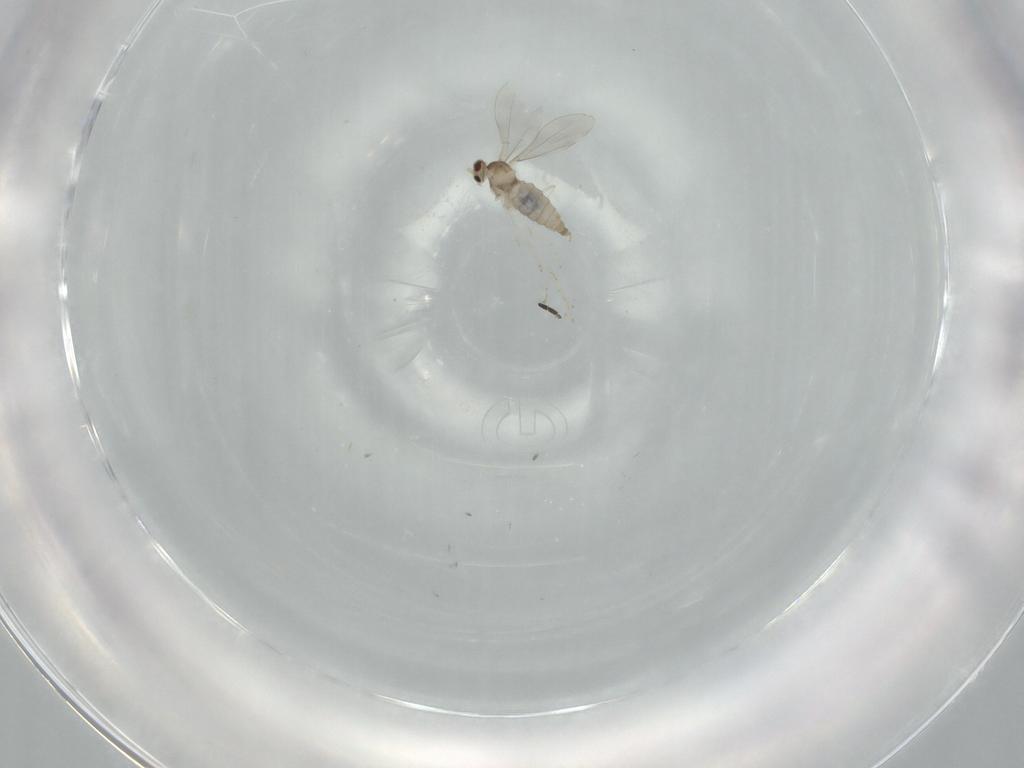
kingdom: Animalia
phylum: Arthropoda
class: Insecta
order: Diptera
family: Cecidomyiidae
